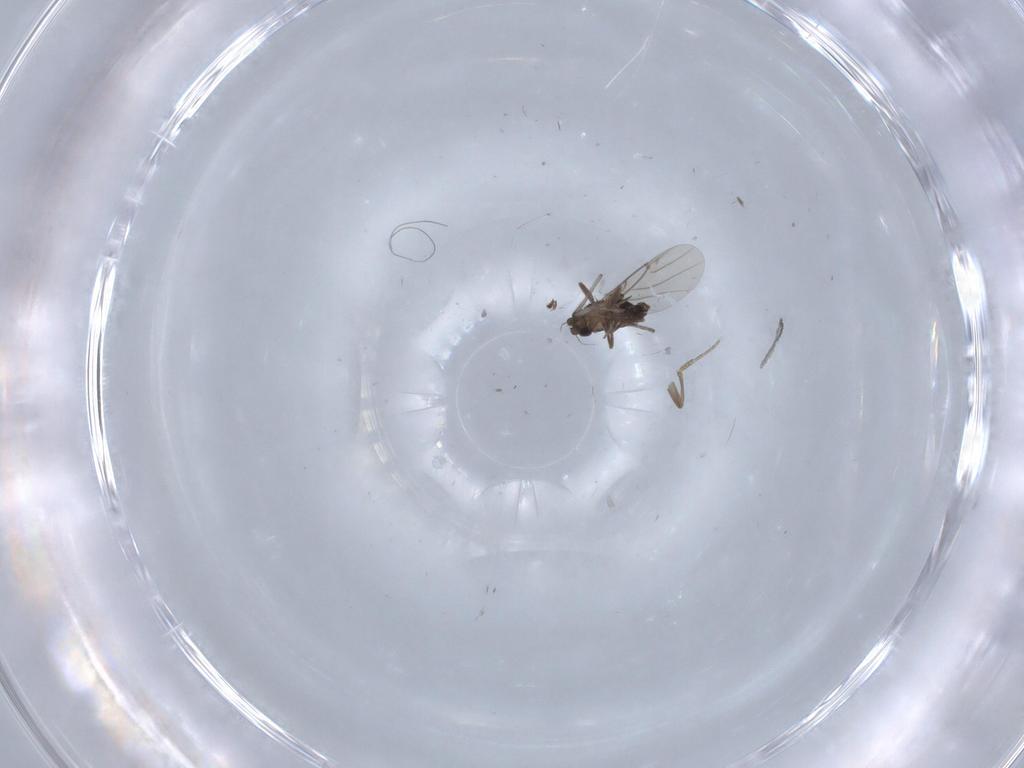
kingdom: Animalia
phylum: Arthropoda
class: Insecta
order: Diptera
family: Phoridae
